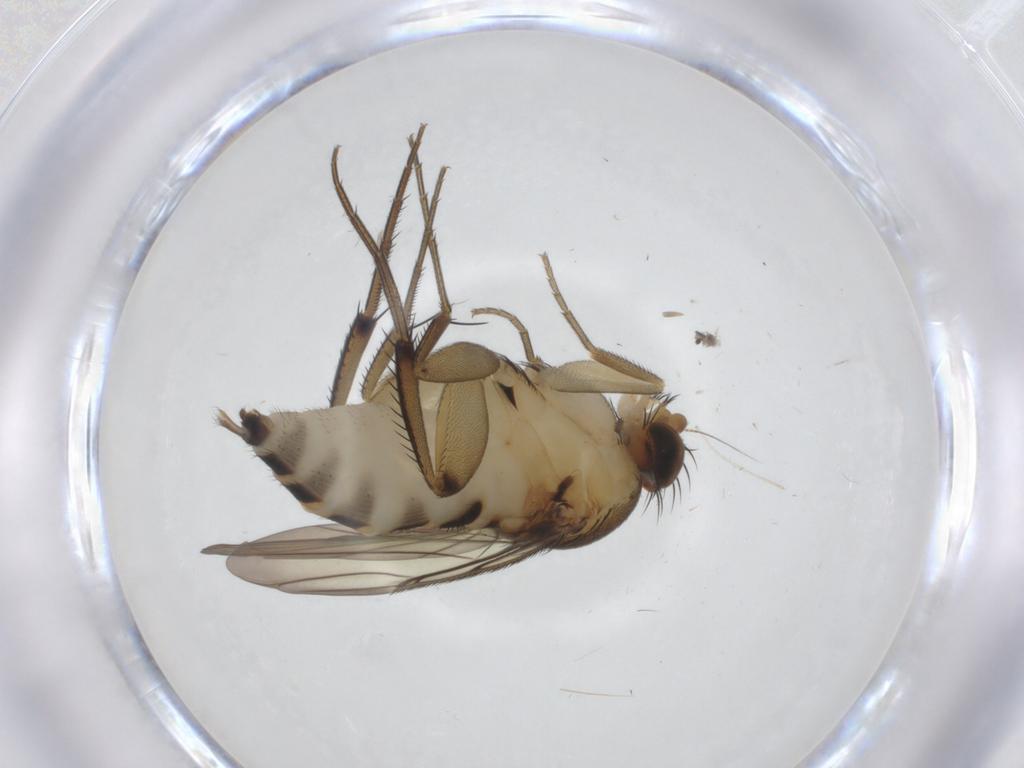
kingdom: Animalia
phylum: Arthropoda
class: Insecta
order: Diptera
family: Phoridae
